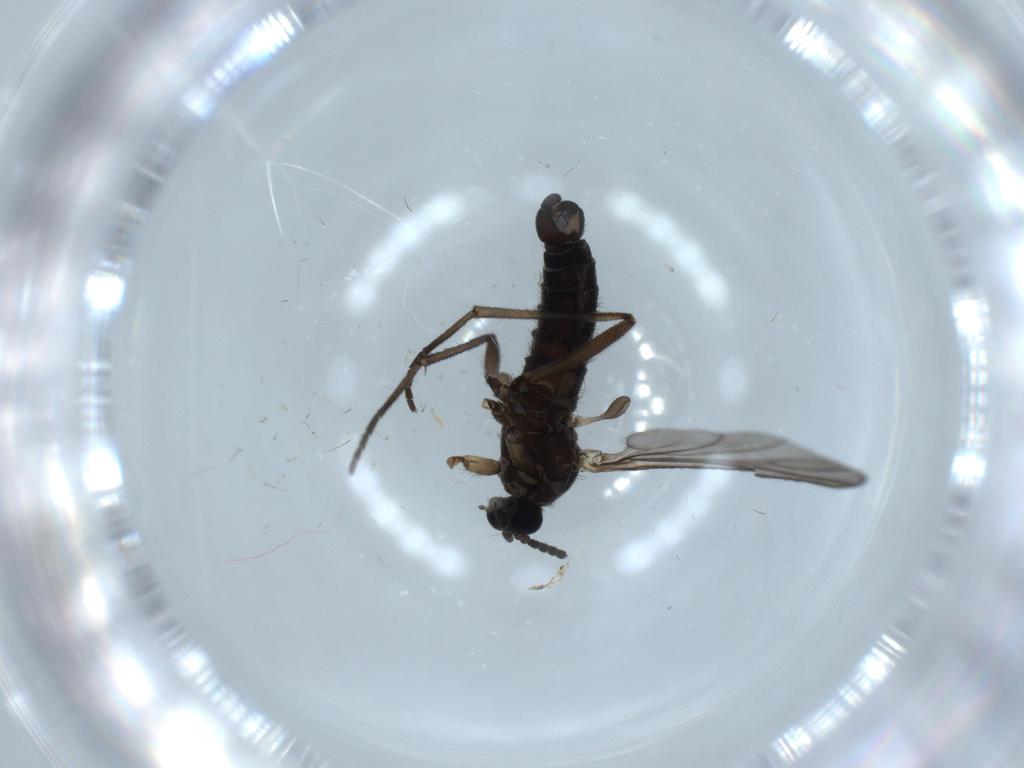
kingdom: Animalia
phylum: Arthropoda
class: Insecta
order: Diptera
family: Sciaridae
